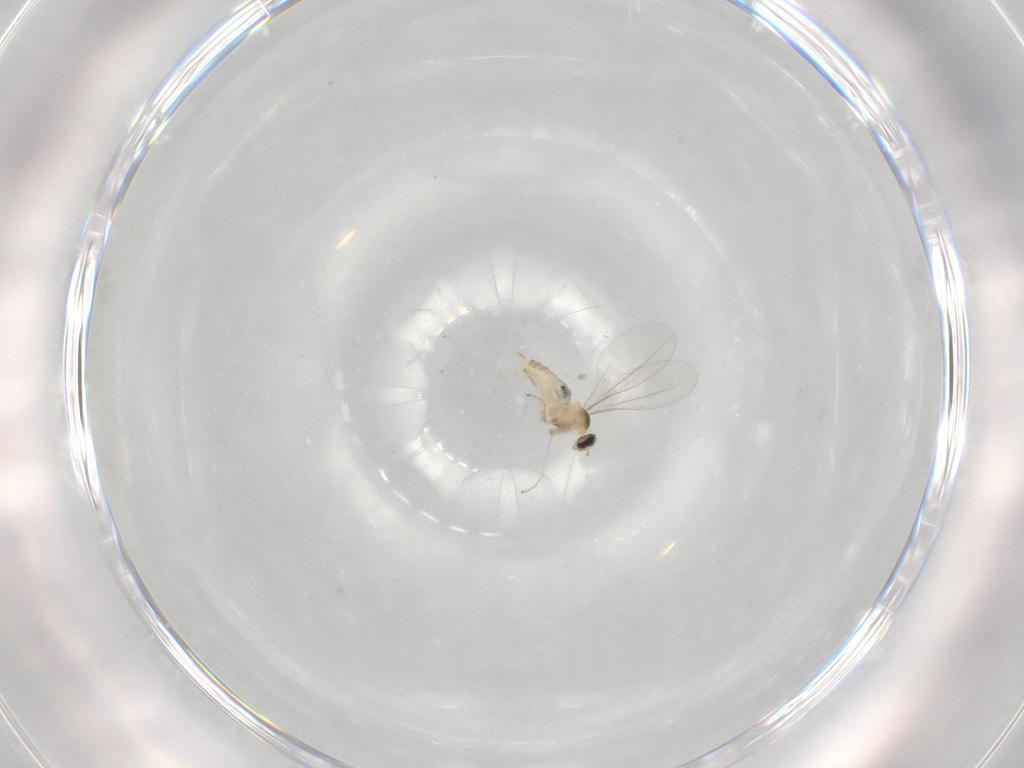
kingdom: Animalia
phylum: Arthropoda
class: Insecta
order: Diptera
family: Cecidomyiidae
